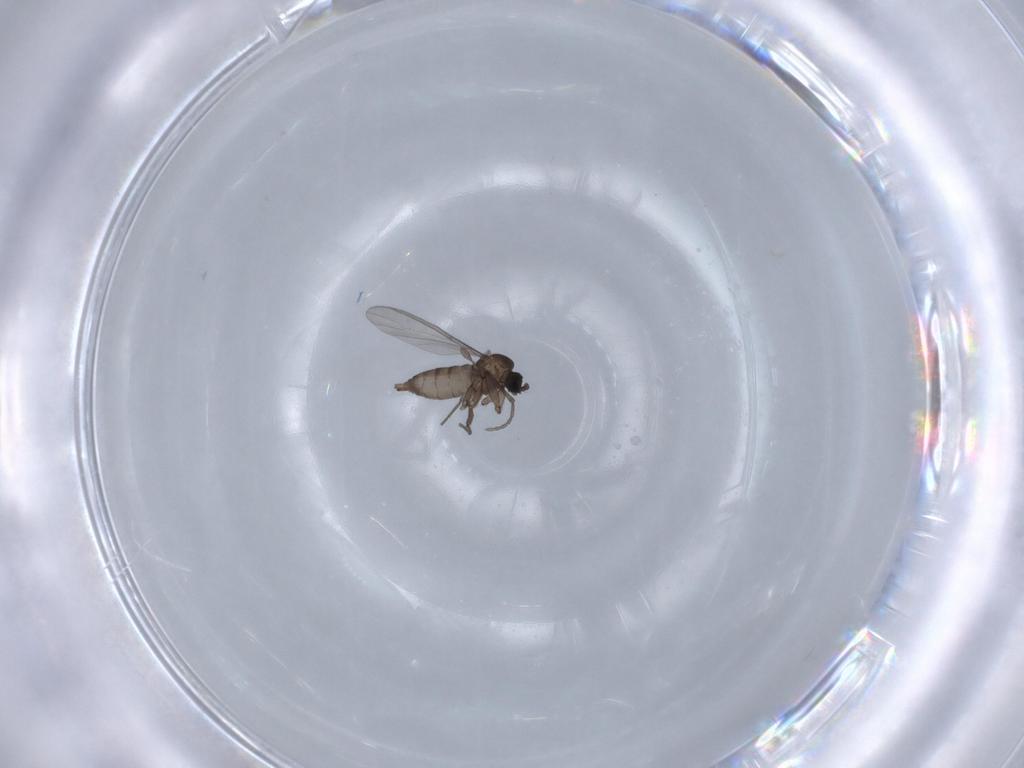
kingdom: Animalia
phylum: Arthropoda
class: Insecta
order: Diptera
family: Sciaridae
